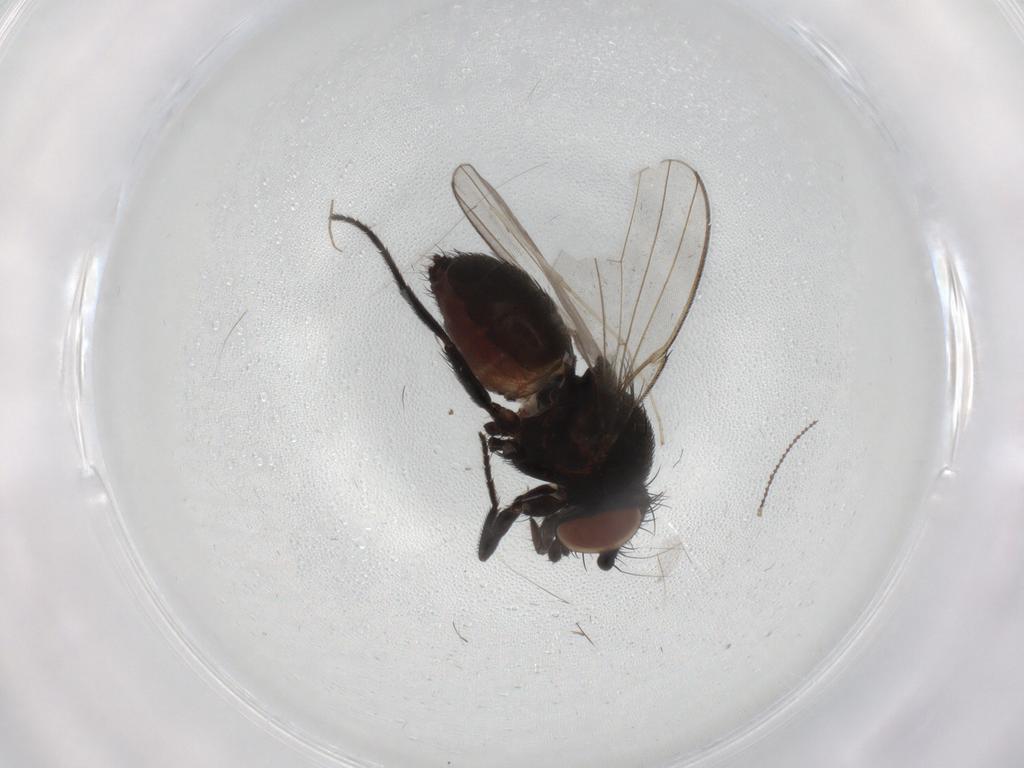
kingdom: Animalia
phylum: Arthropoda
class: Insecta
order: Diptera
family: Milichiidae
